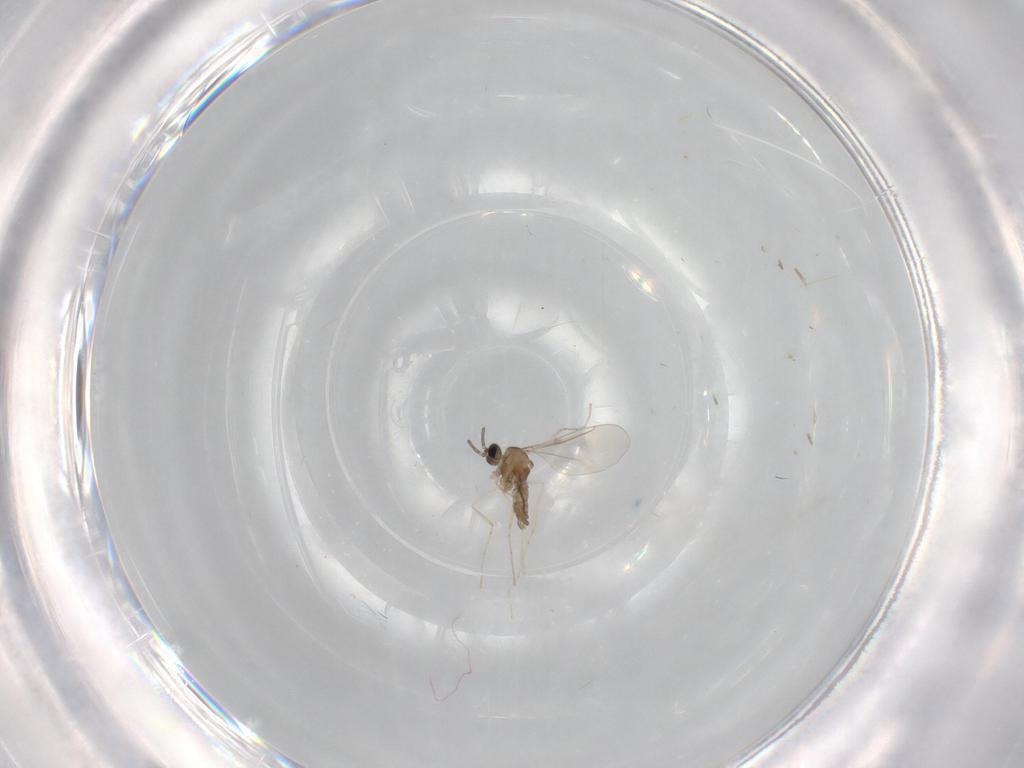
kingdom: Animalia
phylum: Arthropoda
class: Insecta
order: Diptera
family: Cecidomyiidae
